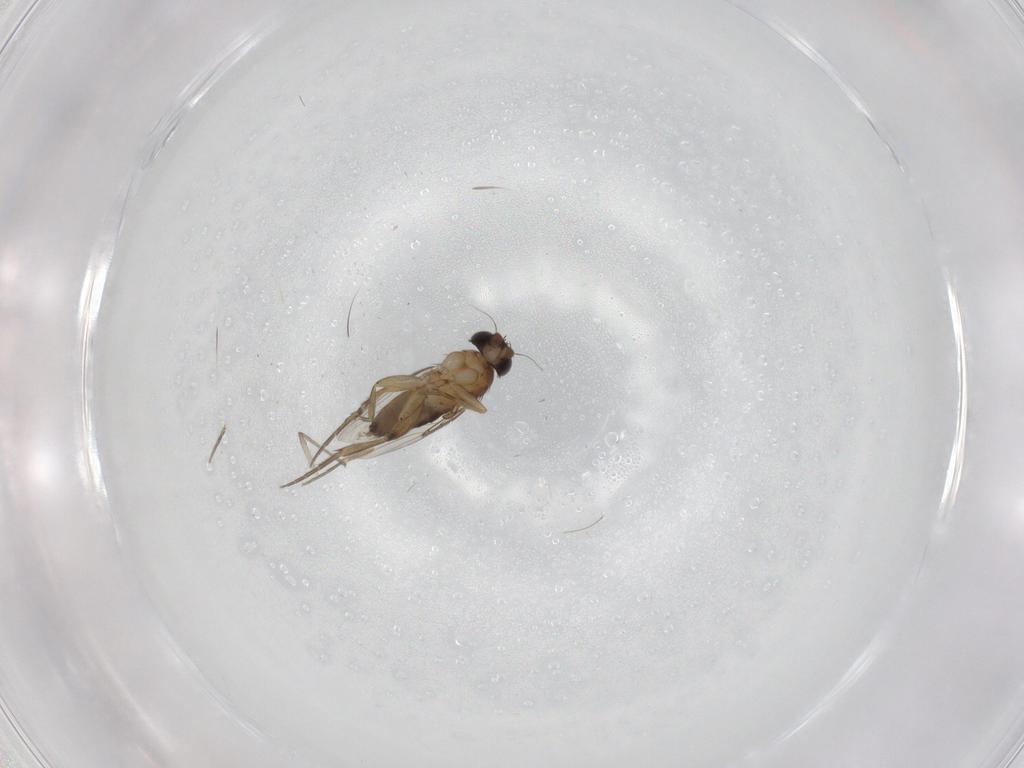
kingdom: Animalia
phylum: Arthropoda
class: Insecta
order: Diptera
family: Phoridae
